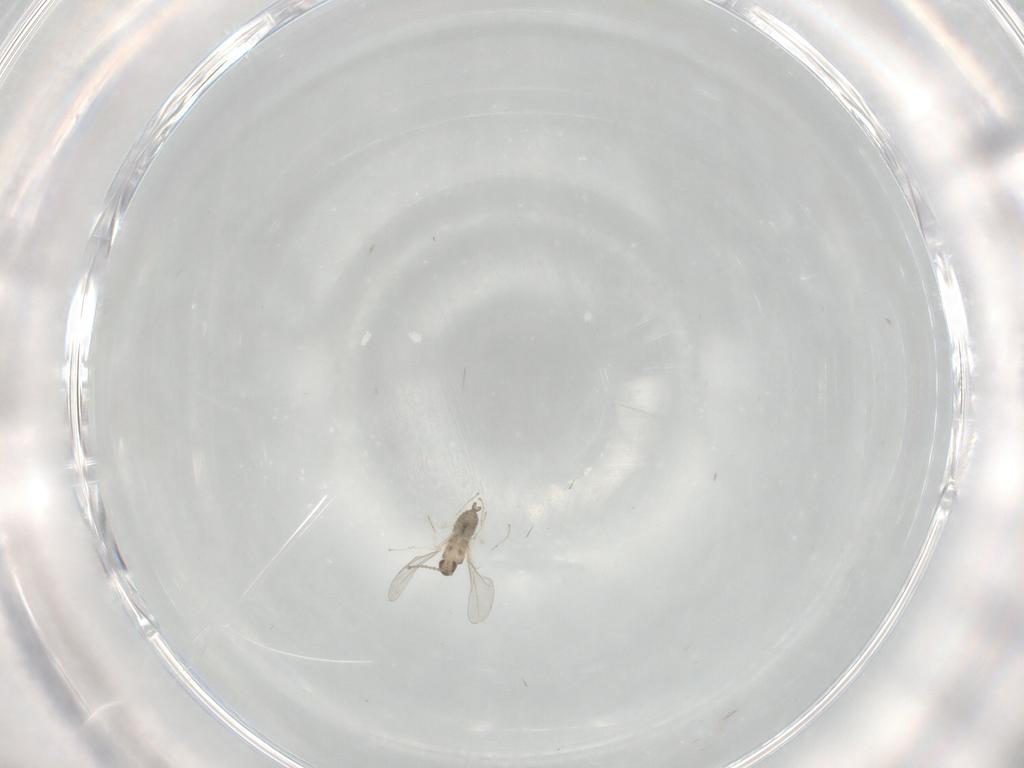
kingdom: Animalia
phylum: Arthropoda
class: Insecta
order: Diptera
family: Cecidomyiidae
